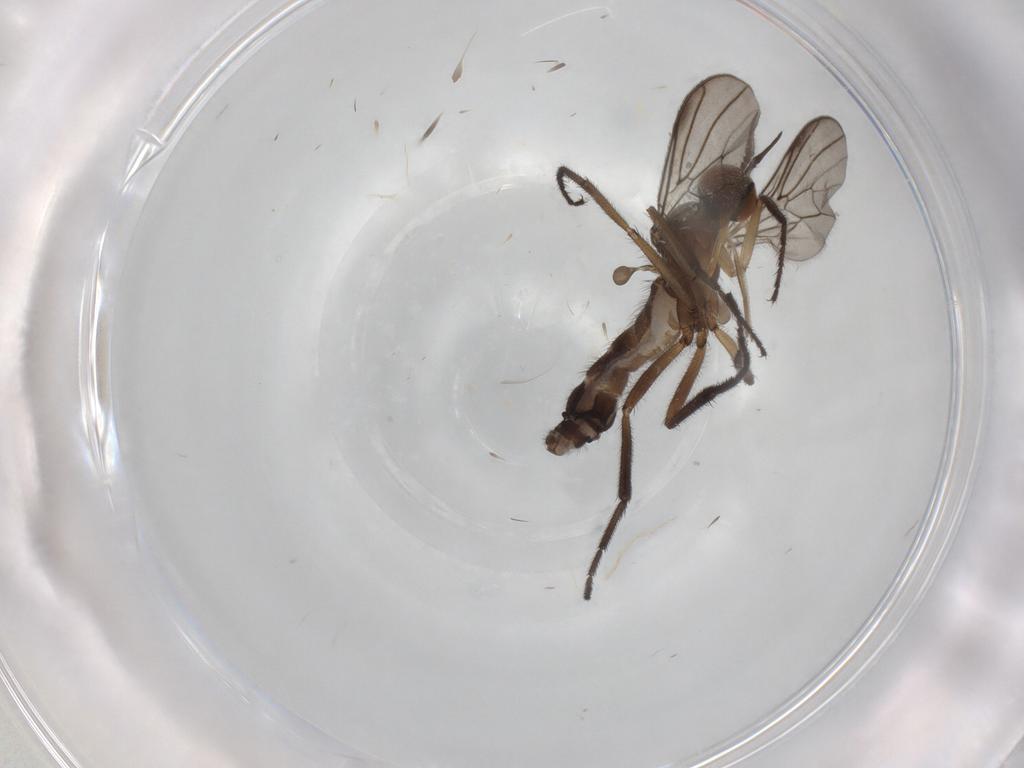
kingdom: Animalia
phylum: Arthropoda
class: Insecta
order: Diptera
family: Empididae
